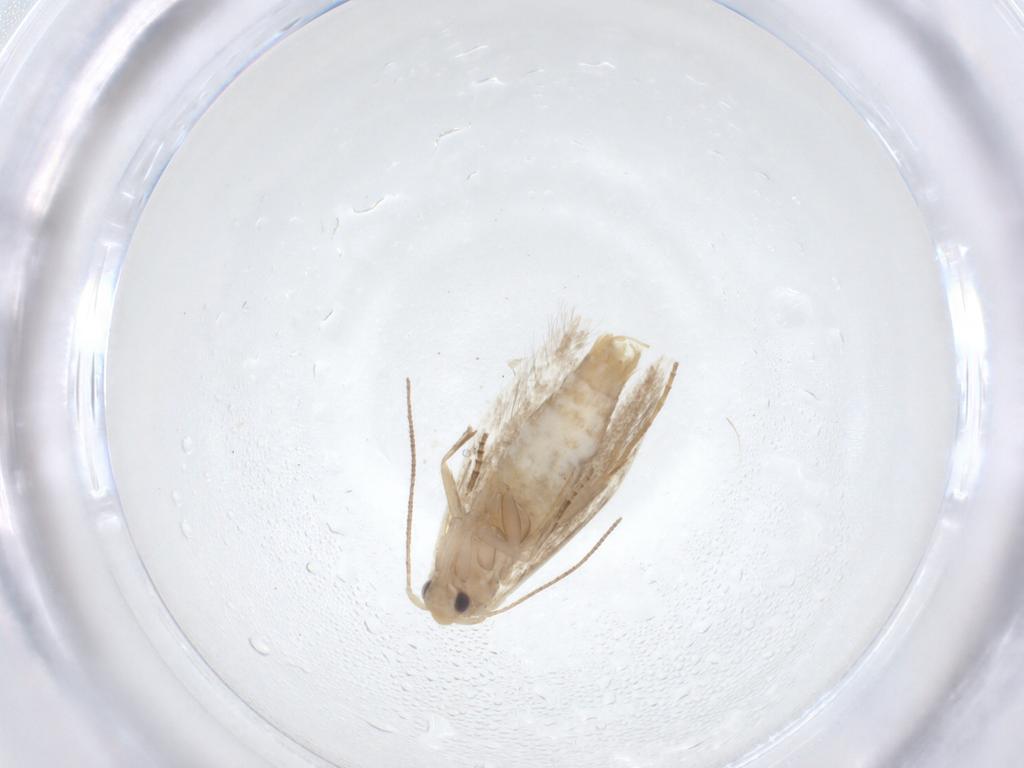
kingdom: Animalia
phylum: Arthropoda
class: Insecta
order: Lepidoptera
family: Bucculatricidae
